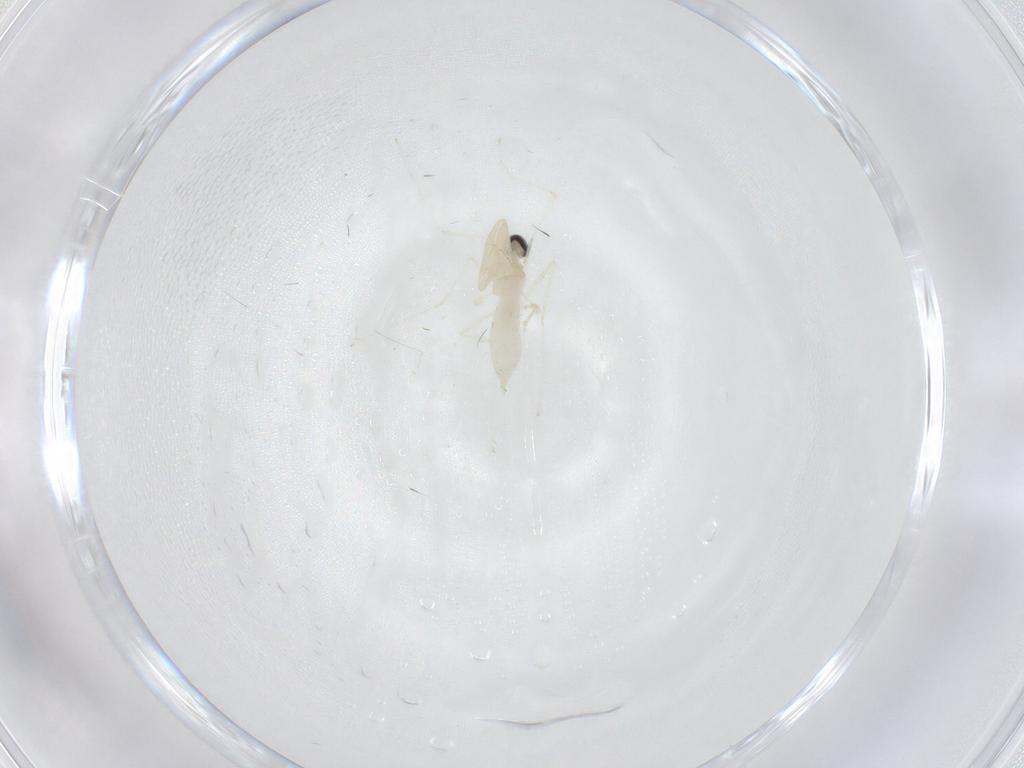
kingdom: Animalia
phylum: Arthropoda
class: Insecta
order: Diptera
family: Cecidomyiidae
